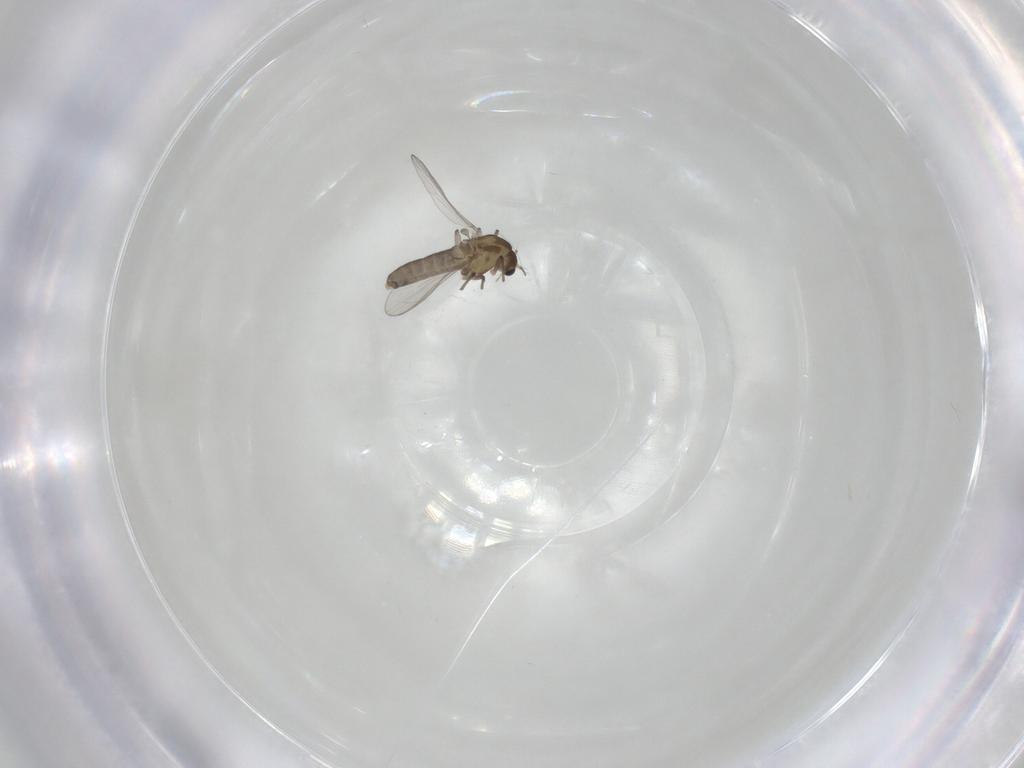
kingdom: Animalia
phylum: Arthropoda
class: Insecta
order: Diptera
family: Chironomidae
